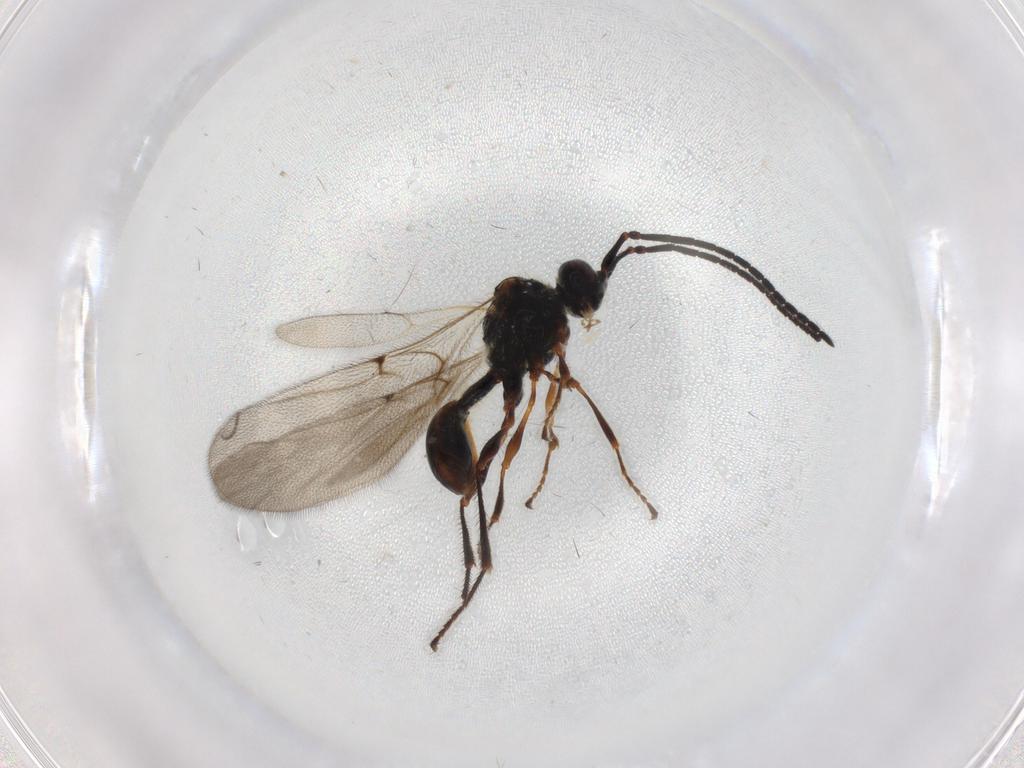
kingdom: Animalia
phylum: Arthropoda
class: Insecta
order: Hymenoptera
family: Diapriidae
